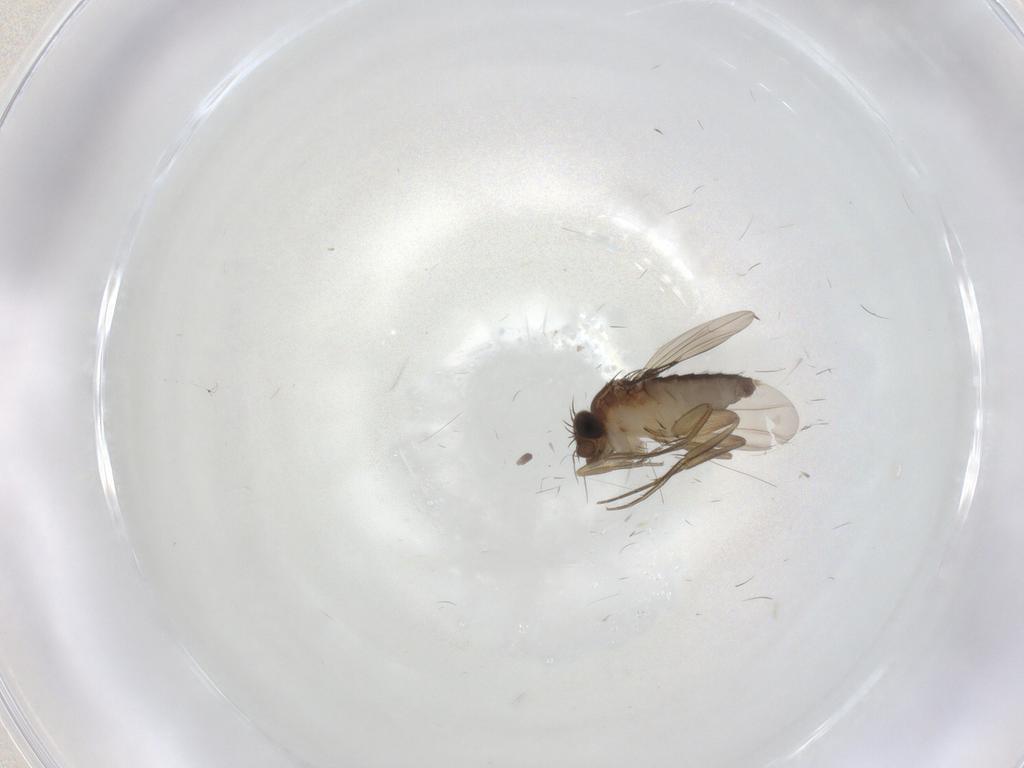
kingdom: Animalia
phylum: Arthropoda
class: Insecta
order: Diptera
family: Phoridae
